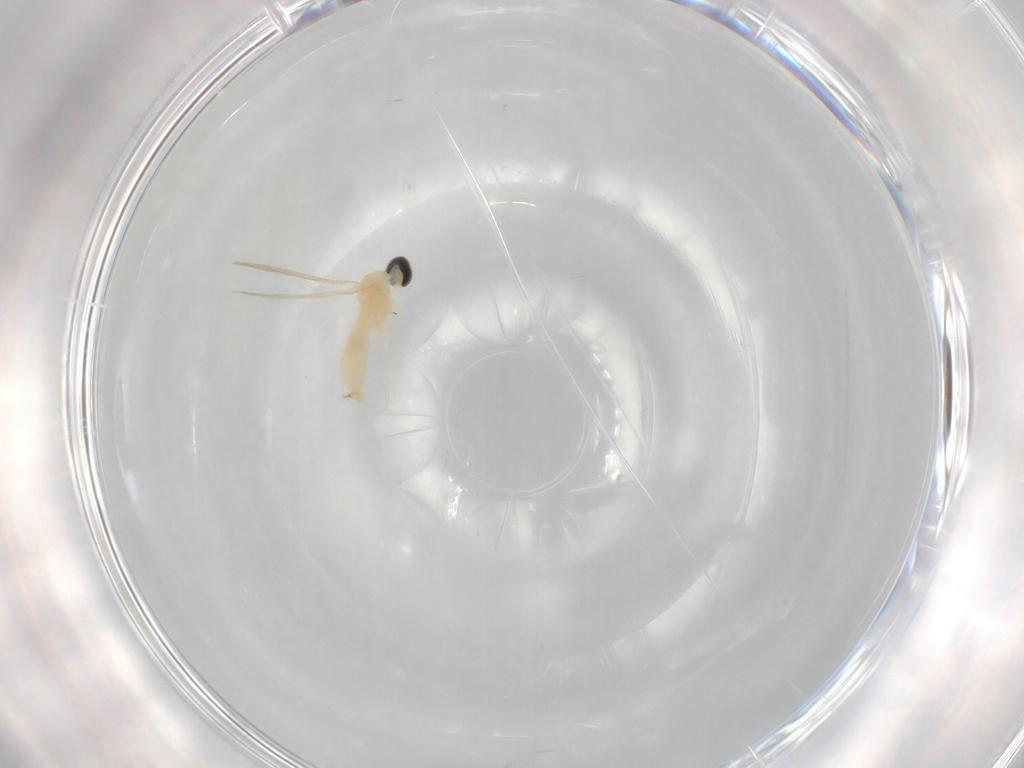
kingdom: Animalia
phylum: Arthropoda
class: Insecta
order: Diptera
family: Cecidomyiidae
